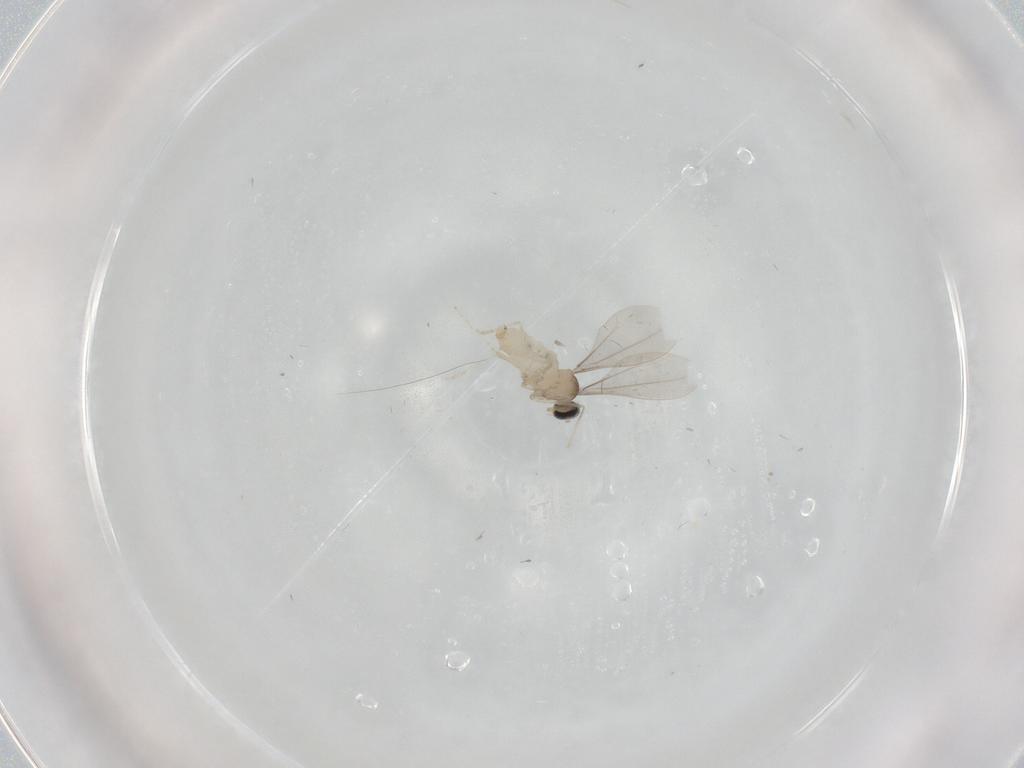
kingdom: Animalia
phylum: Arthropoda
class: Insecta
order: Diptera
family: Cecidomyiidae
